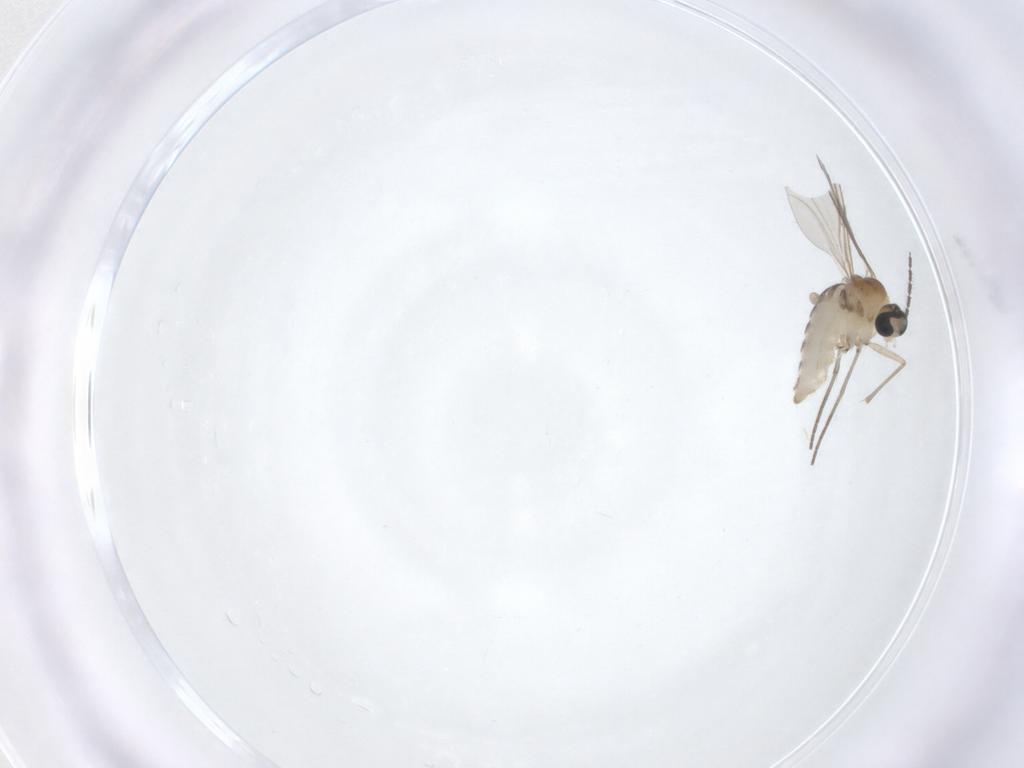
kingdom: Animalia
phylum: Arthropoda
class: Insecta
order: Diptera
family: Sciaridae
